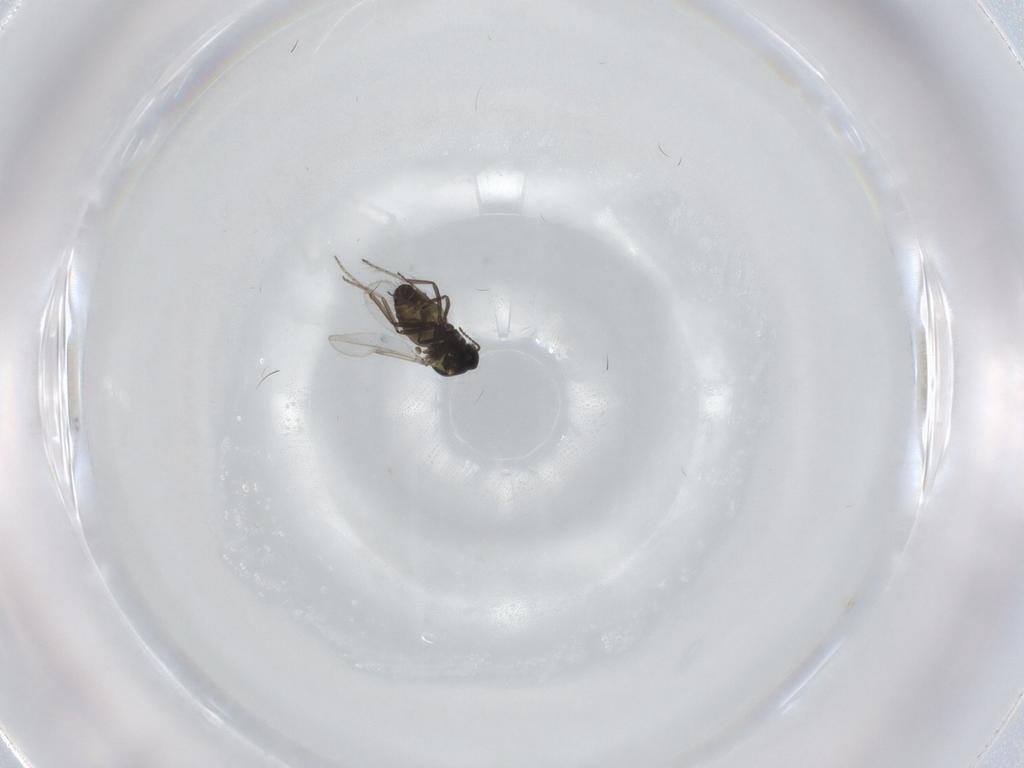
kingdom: Animalia
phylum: Arthropoda
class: Insecta
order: Diptera
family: Ceratopogonidae
